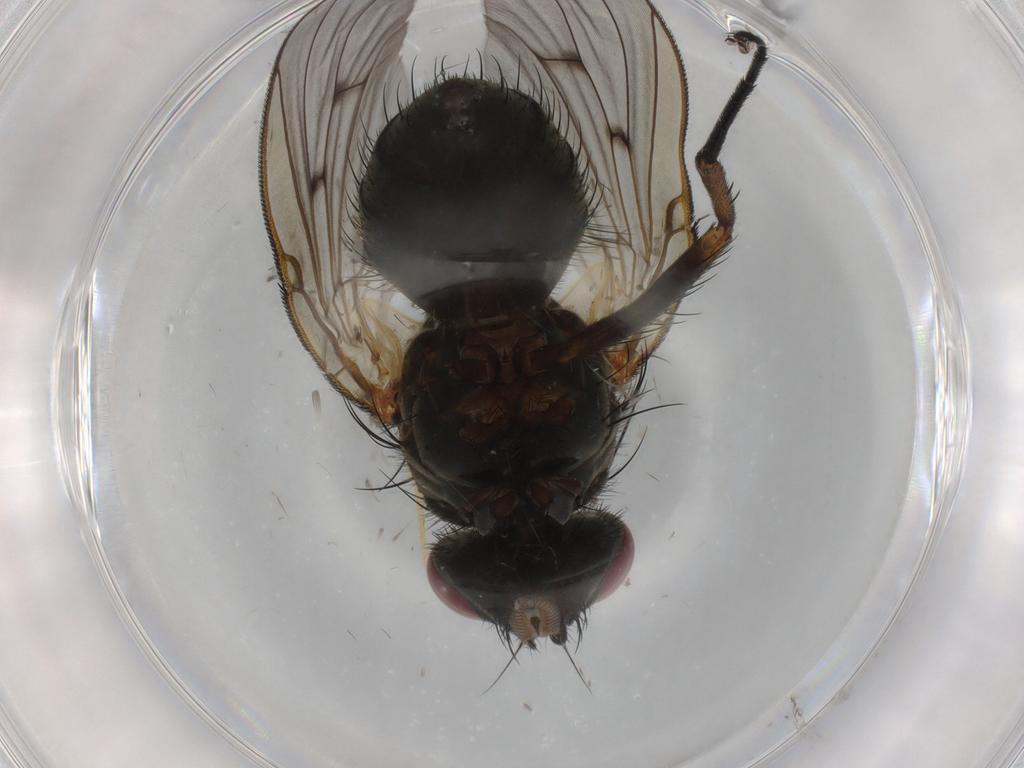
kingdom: Animalia
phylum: Arthropoda
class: Insecta
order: Diptera
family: Muscidae
